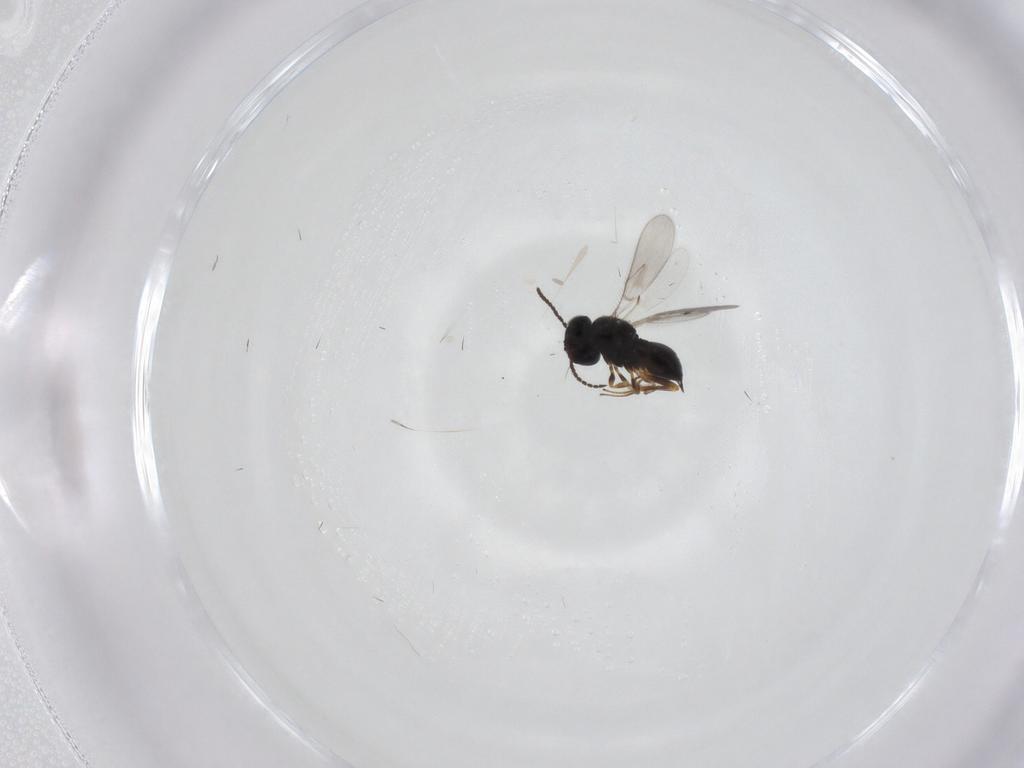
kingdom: Animalia
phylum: Arthropoda
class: Insecta
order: Hymenoptera
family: Scelionidae
